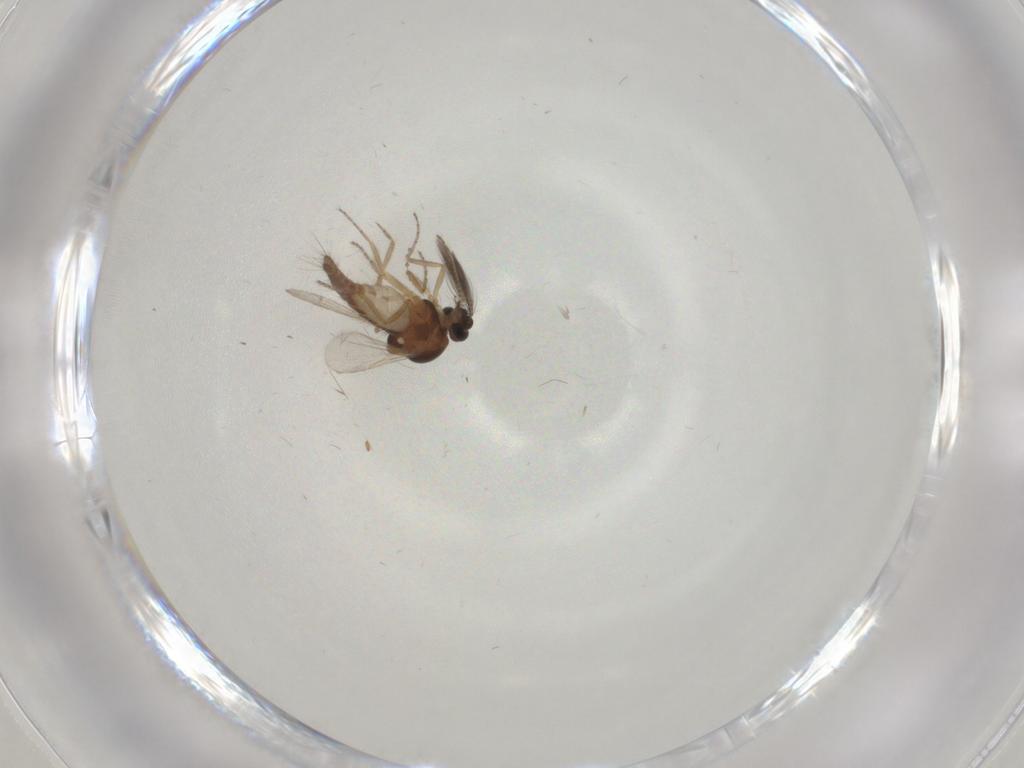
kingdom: Animalia
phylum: Arthropoda
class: Insecta
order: Diptera
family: Ceratopogonidae
